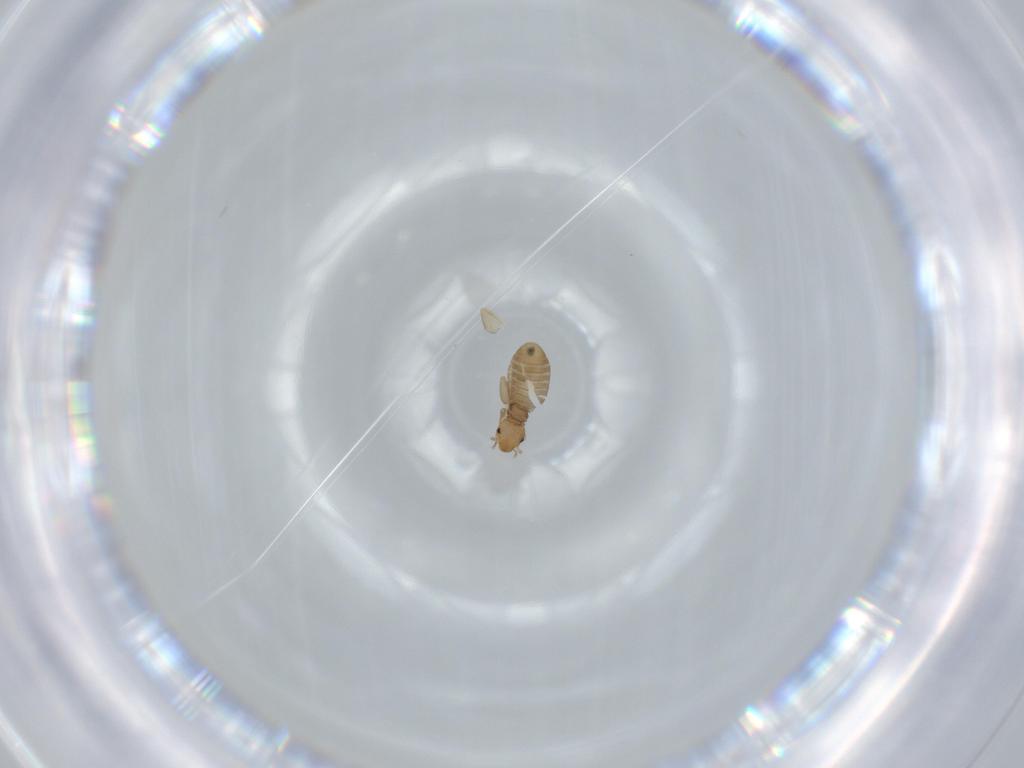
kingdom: Animalia
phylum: Arthropoda
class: Insecta
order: Psocodea
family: Liposcelididae
